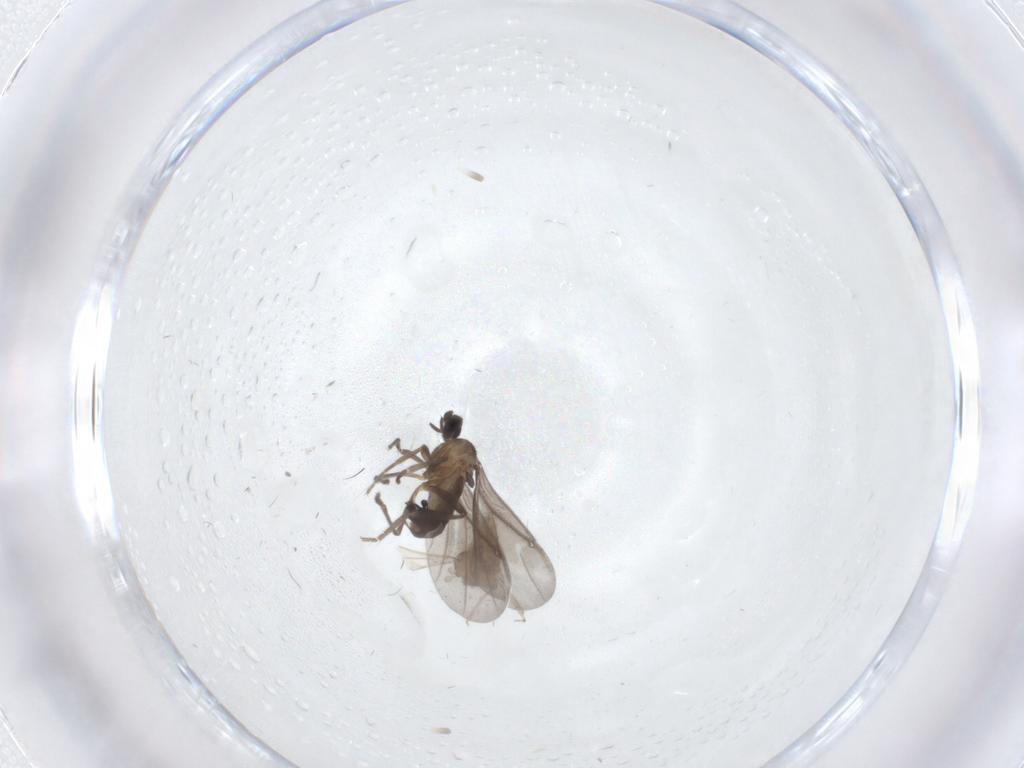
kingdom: Animalia
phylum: Arthropoda
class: Insecta
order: Diptera
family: Phoridae
